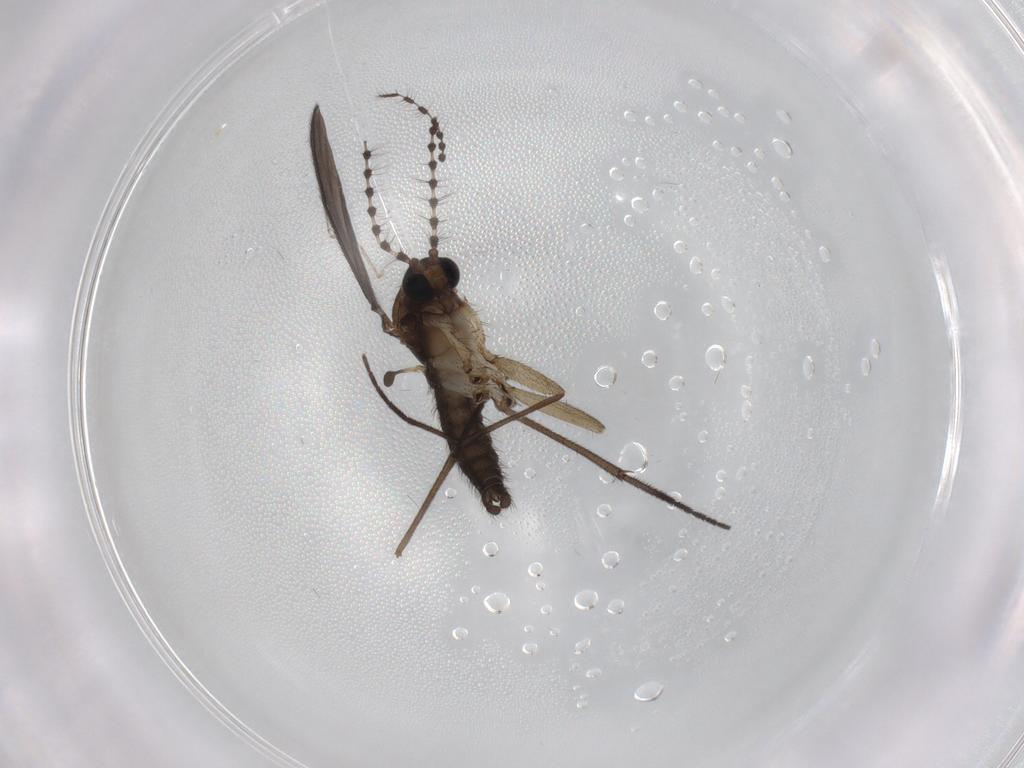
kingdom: Animalia
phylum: Arthropoda
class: Insecta
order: Diptera
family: Sciaridae
